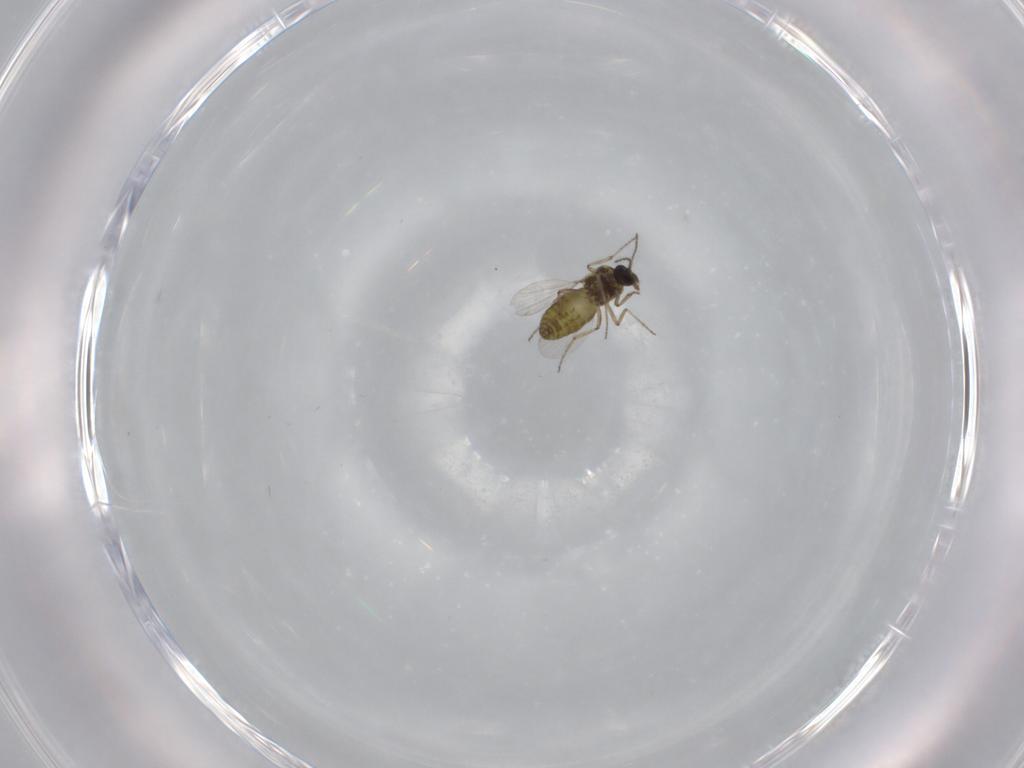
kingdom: Animalia
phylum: Arthropoda
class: Insecta
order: Diptera
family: Ceratopogonidae
